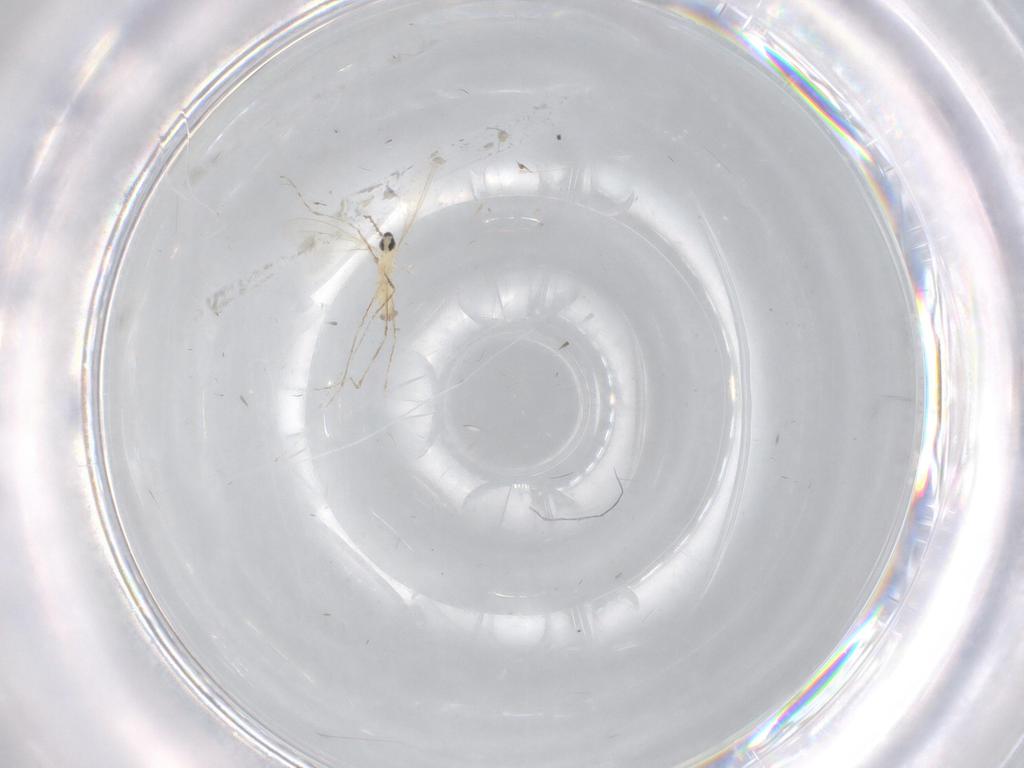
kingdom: Animalia
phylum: Arthropoda
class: Insecta
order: Diptera
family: Cecidomyiidae
